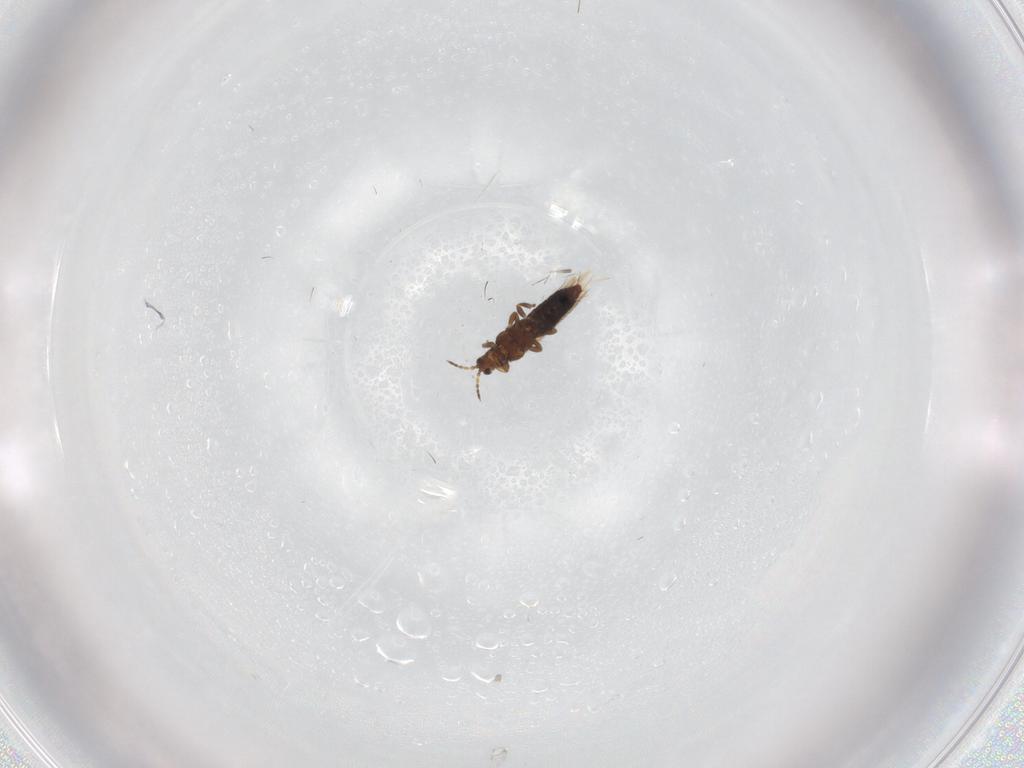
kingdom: Animalia
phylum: Arthropoda
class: Insecta
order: Thysanoptera
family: Thripidae
